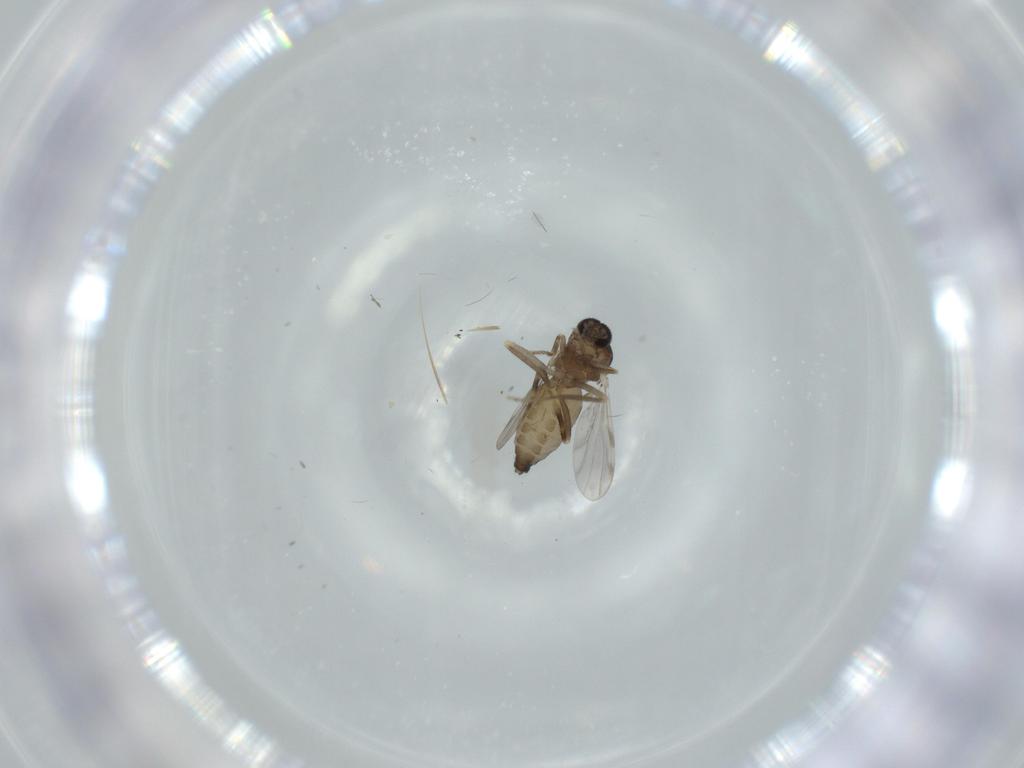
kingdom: Animalia
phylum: Arthropoda
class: Insecta
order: Diptera
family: Ceratopogonidae
